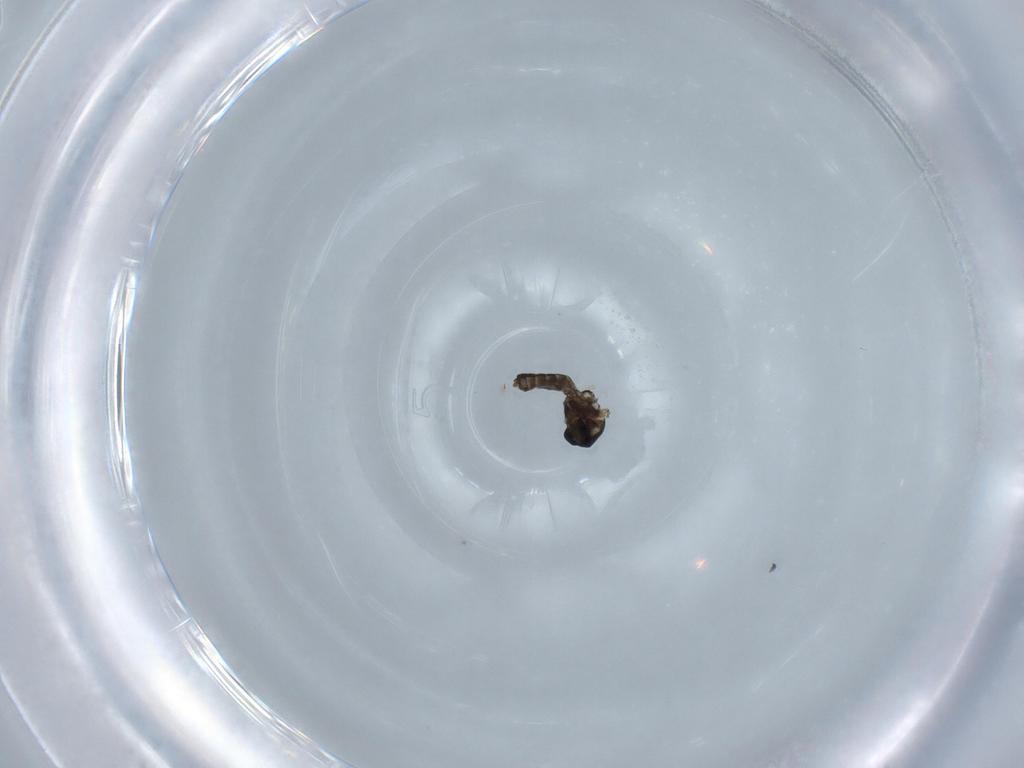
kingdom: Animalia
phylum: Arthropoda
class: Insecta
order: Diptera
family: Ceratopogonidae
